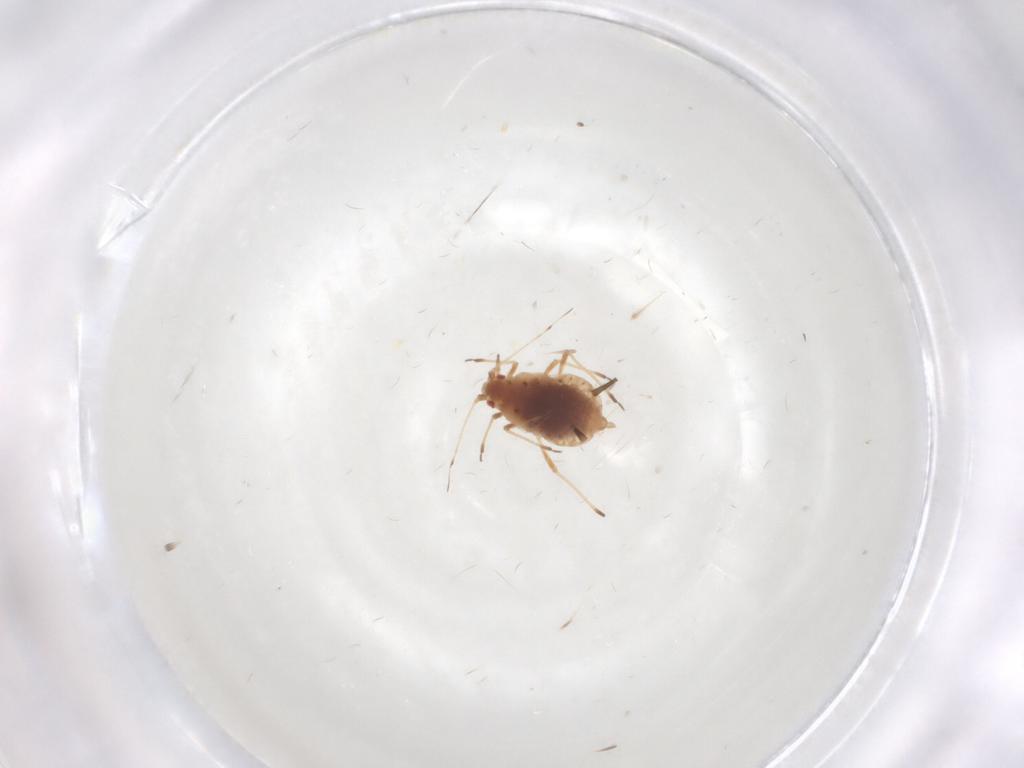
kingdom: Animalia
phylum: Arthropoda
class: Insecta
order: Hemiptera
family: Aphididae
